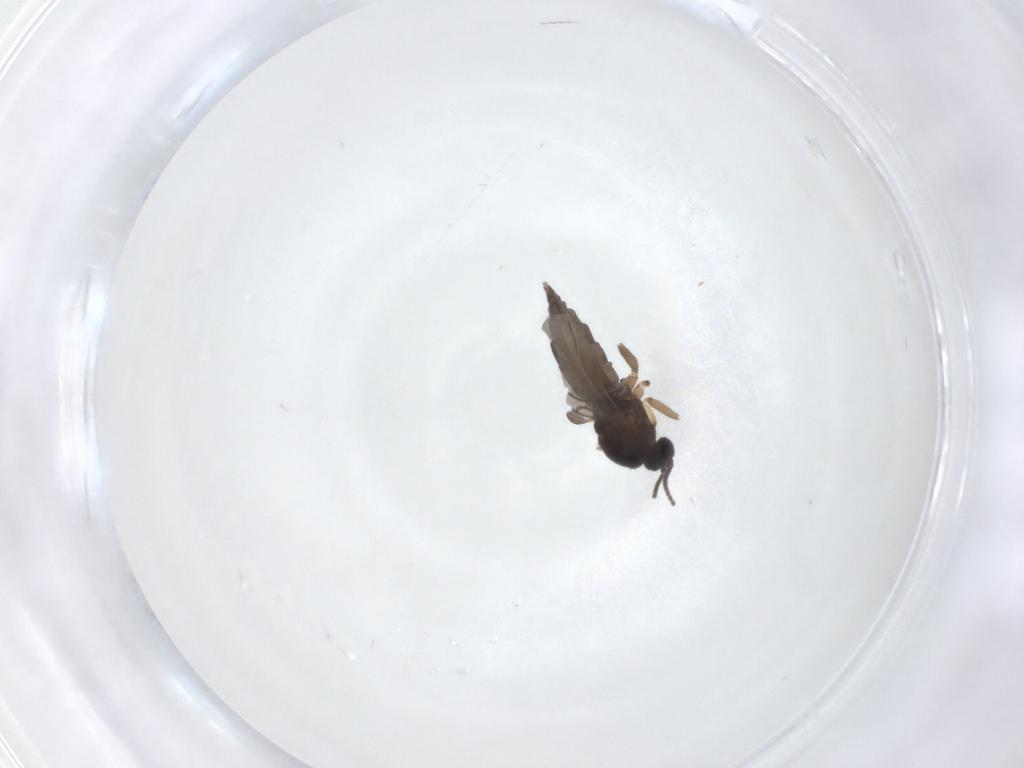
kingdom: Animalia
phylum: Arthropoda
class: Insecta
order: Diptera
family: Sciaridae
